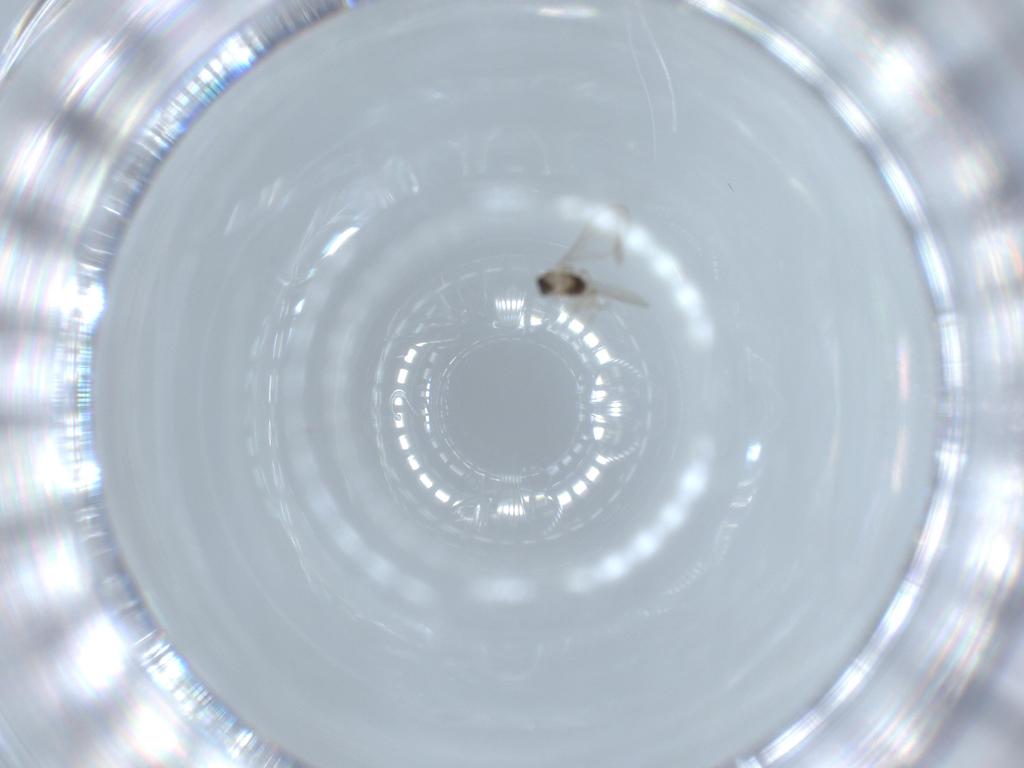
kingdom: Animalia
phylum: Arthropoda
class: Insecta
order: Diptera
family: Cecidomyiidae
